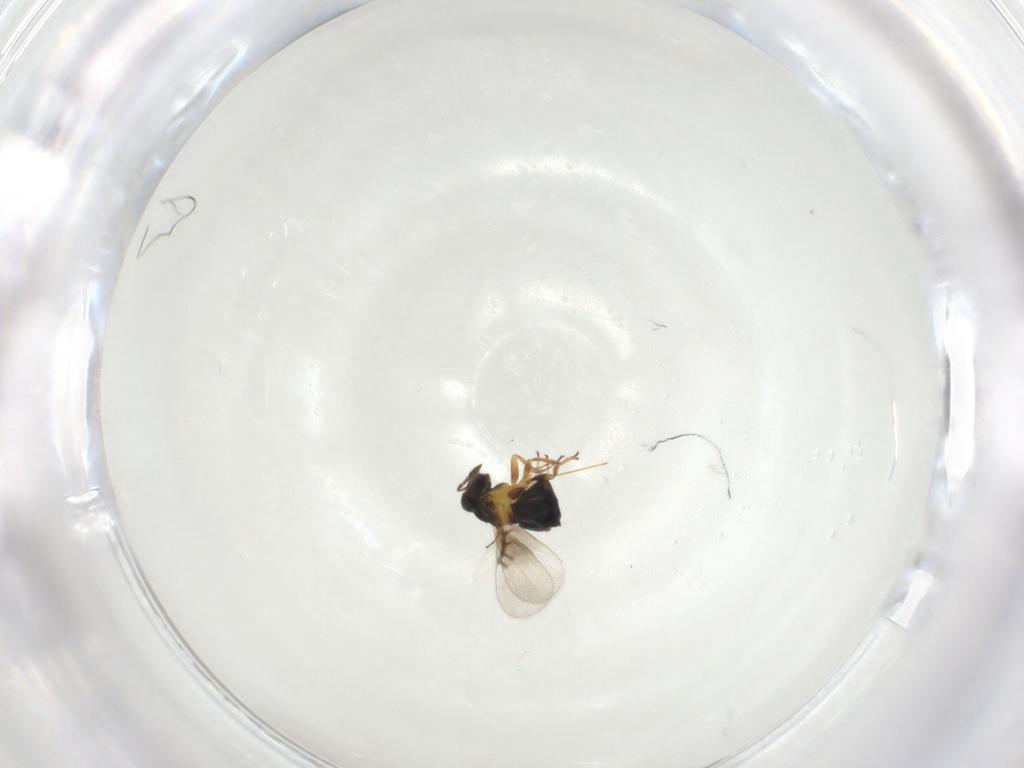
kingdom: Animalia
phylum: Arthropoda
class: Insecta
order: Hymenoptera
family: Trichogrammatidae
